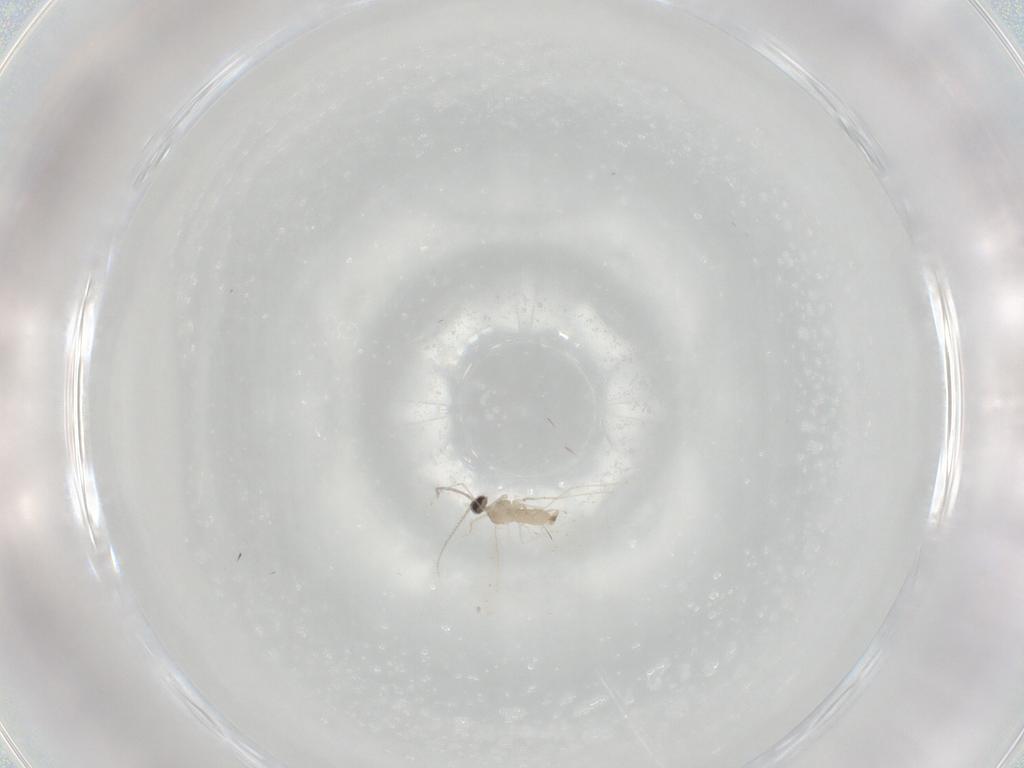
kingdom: Animalia
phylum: Arthropoda
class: Insecta
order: Diptera
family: Cecidomyiidae
